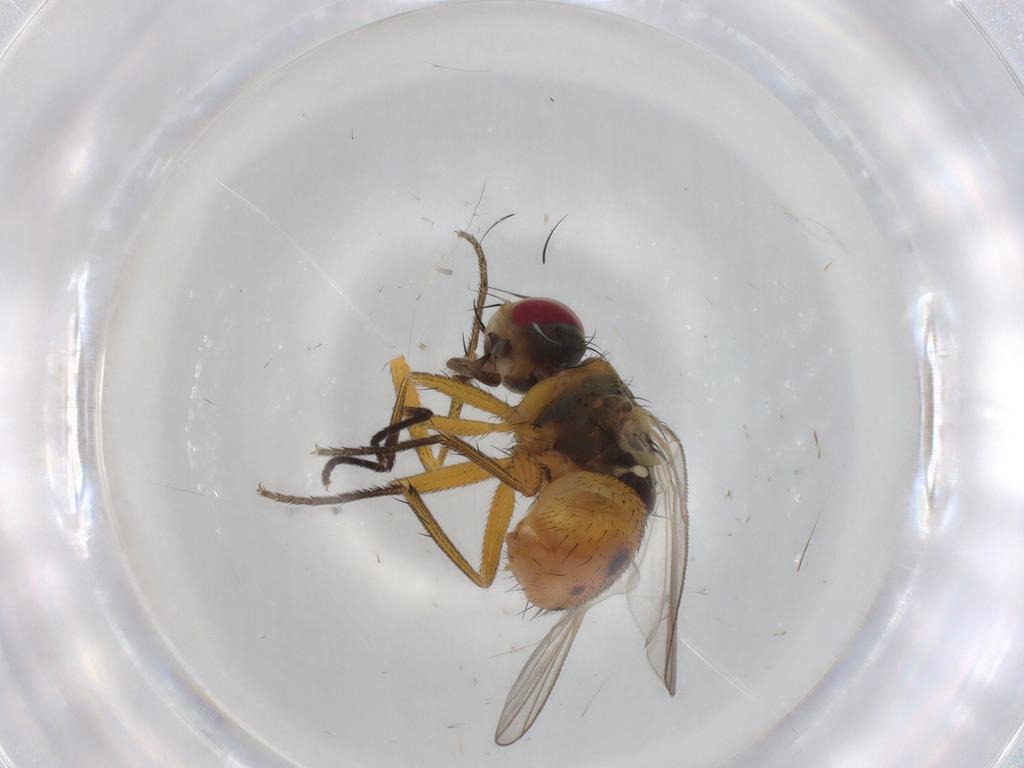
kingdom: Animalia
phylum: Arthropoda
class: Insecta
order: Diptera
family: Muscidae
